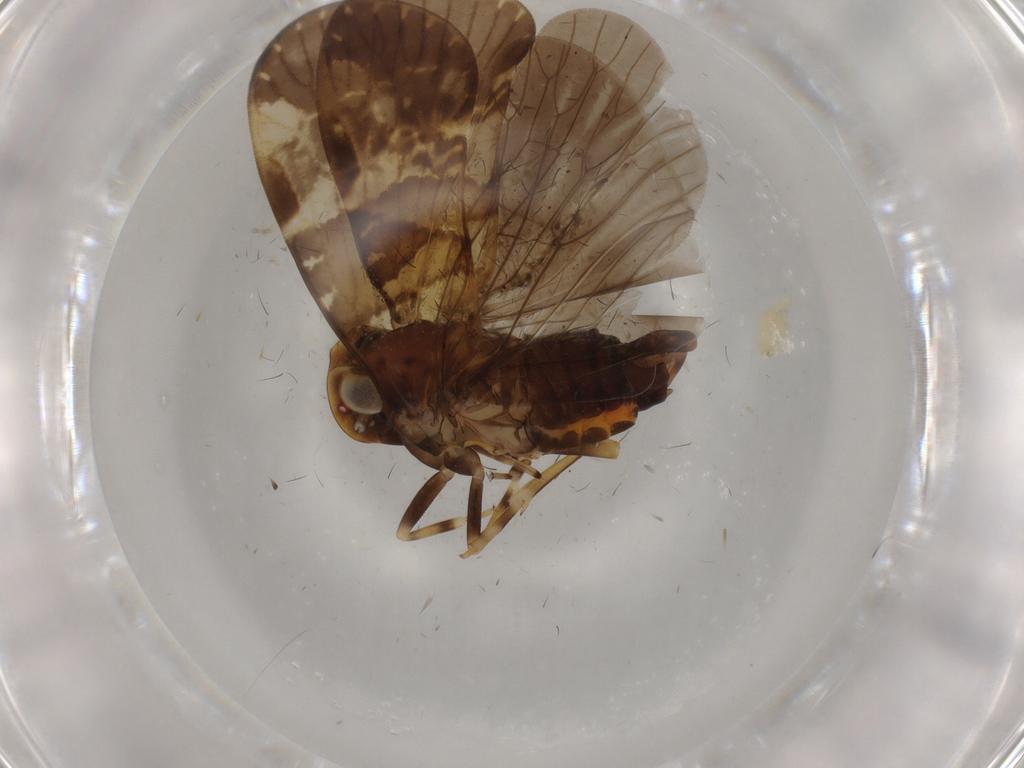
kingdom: Animalia
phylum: Arthropoda
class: Insecta
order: Hemiptera
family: Cixiidae
